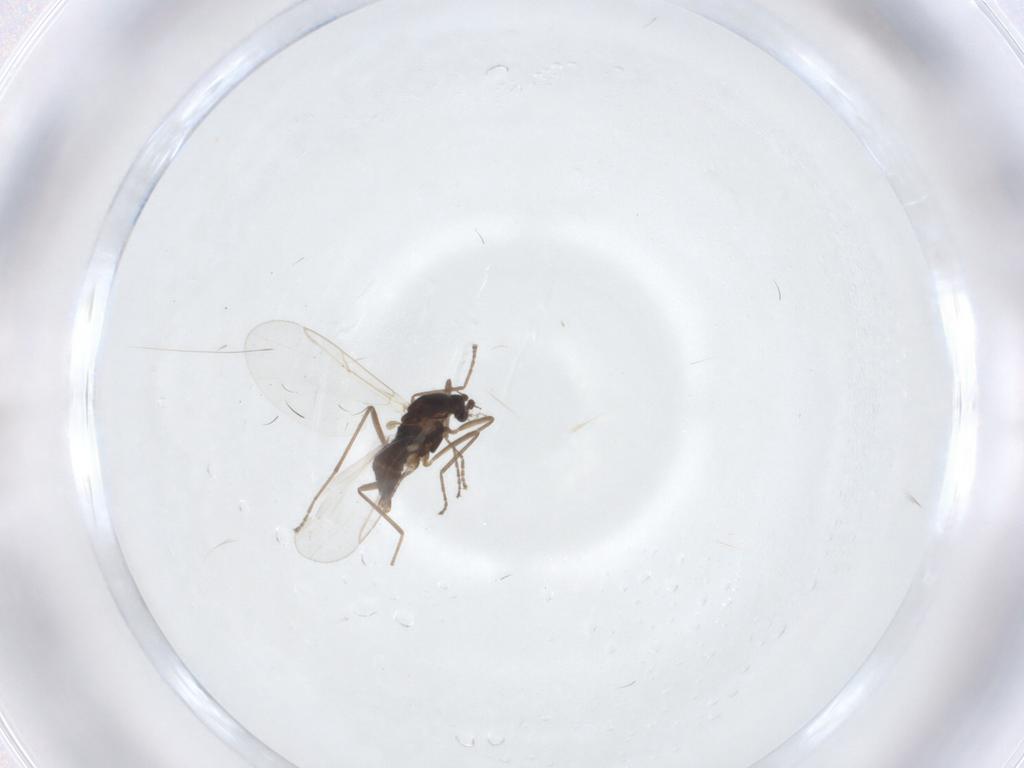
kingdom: Animalia
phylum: Arthropoda
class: Insecta
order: Diptera
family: Cecidomyiidae
